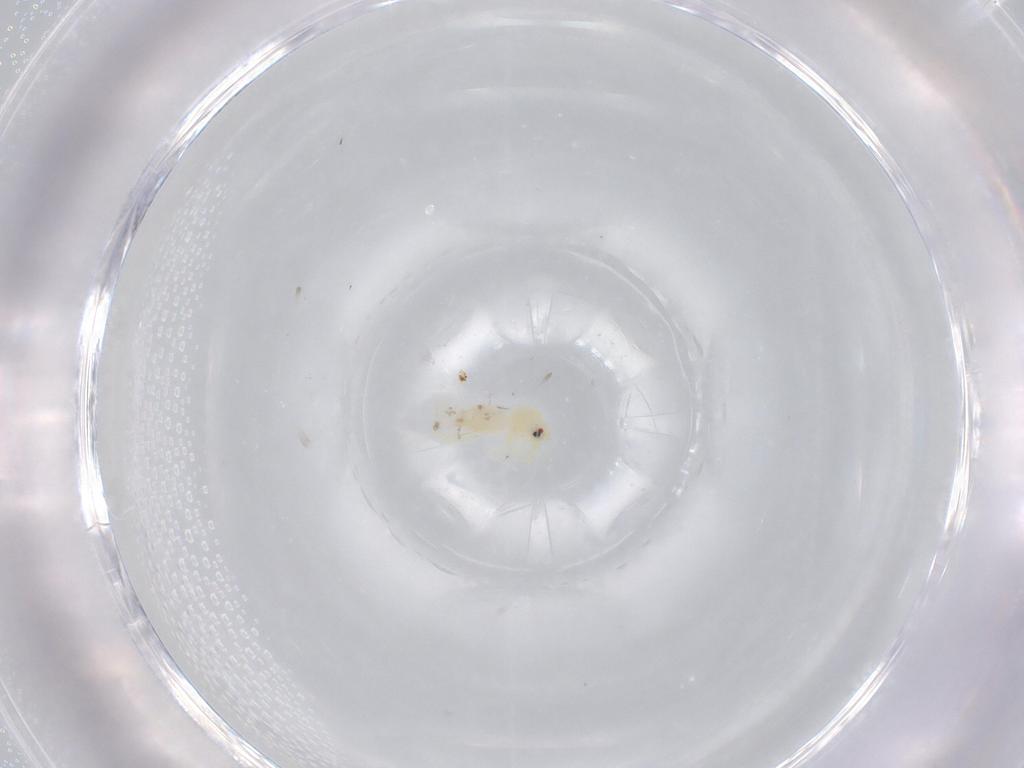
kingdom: Animalia
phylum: Arthropoda
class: Insecta
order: Hemiptera
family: Aleyrodidae
